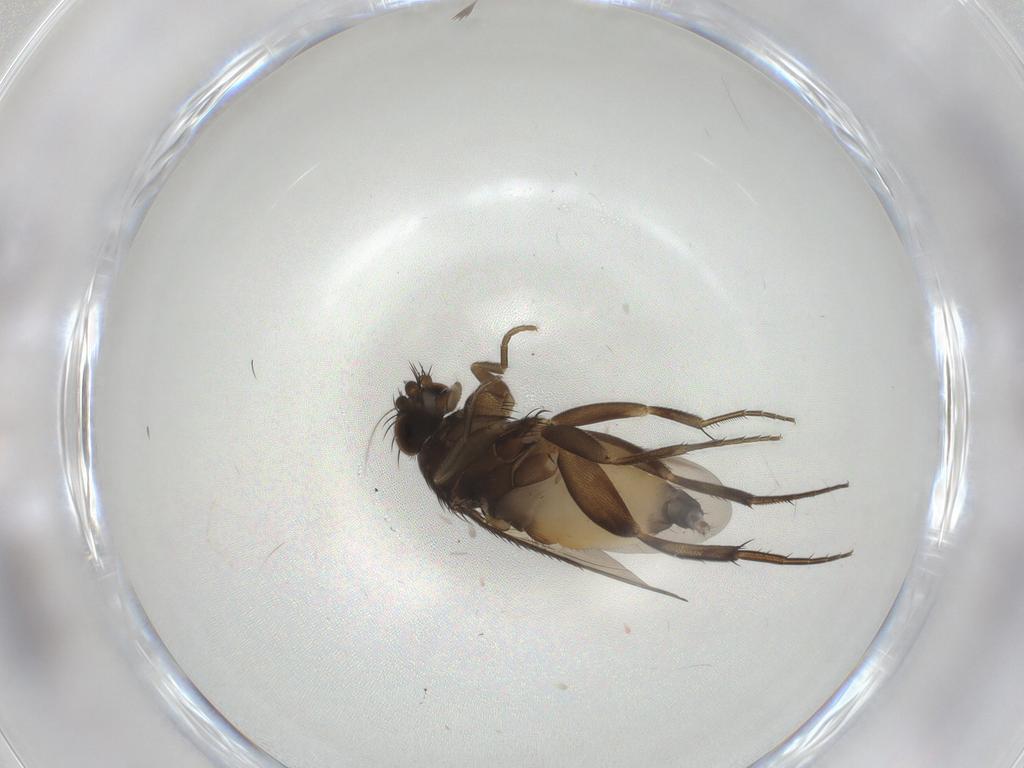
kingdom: Animalia
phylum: Arthropoda
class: Insecta
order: Diptera
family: Phoridae
